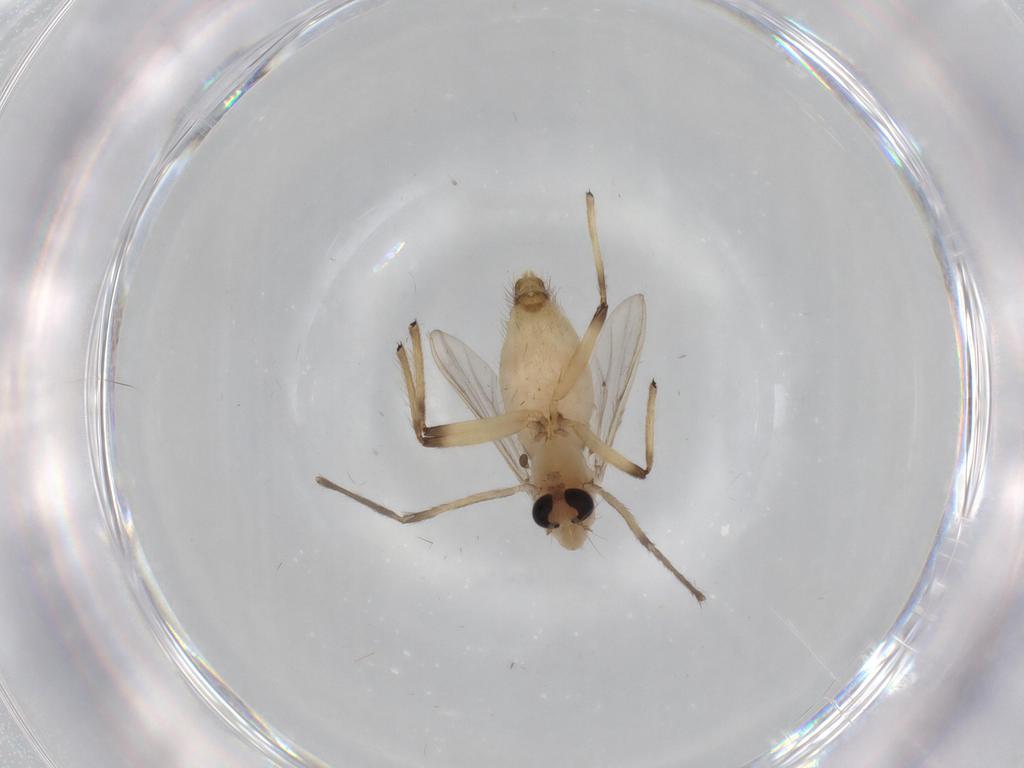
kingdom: Animalia
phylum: Arthropoda
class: Insecta
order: Diptera
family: Chironomidae
